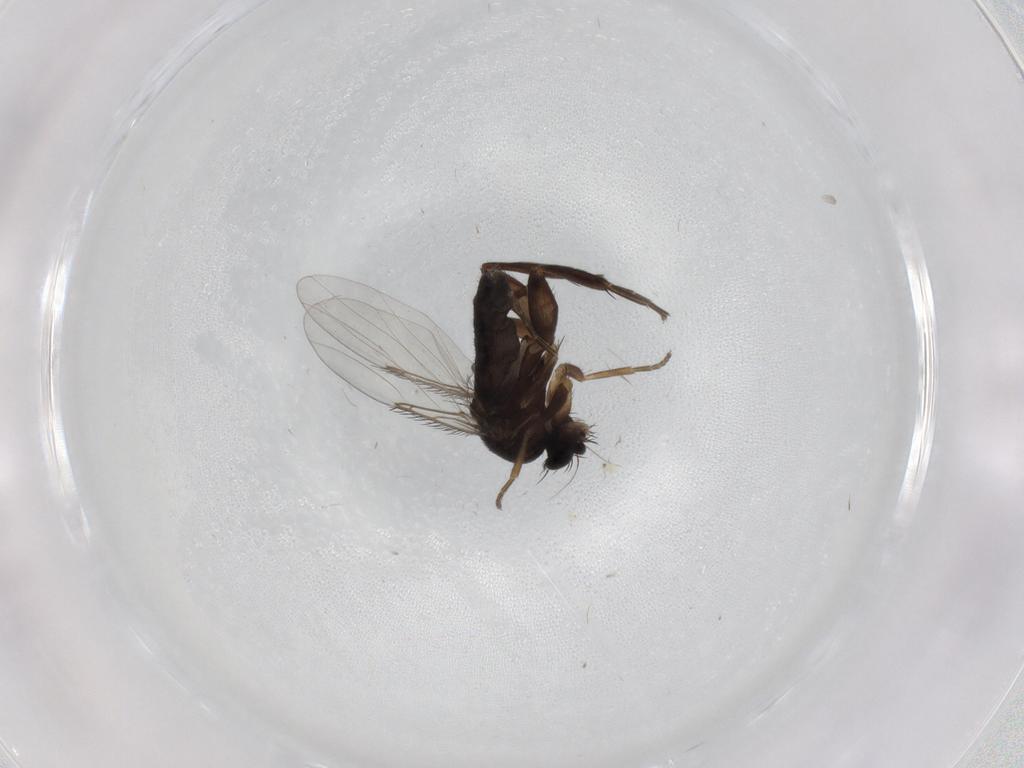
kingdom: Animalia
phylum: Arthropoda
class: Insecta
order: Diptera
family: Phoridae
